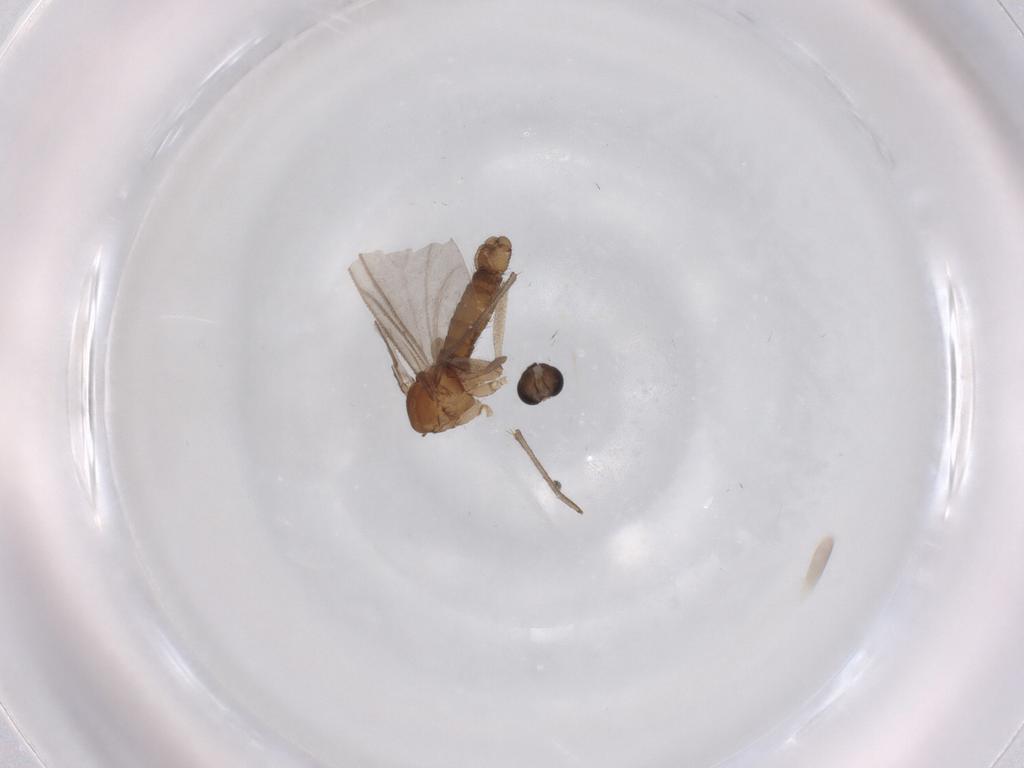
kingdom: Animalia
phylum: Arthropoda
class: Insecta
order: Diptera
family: Sciaridae
